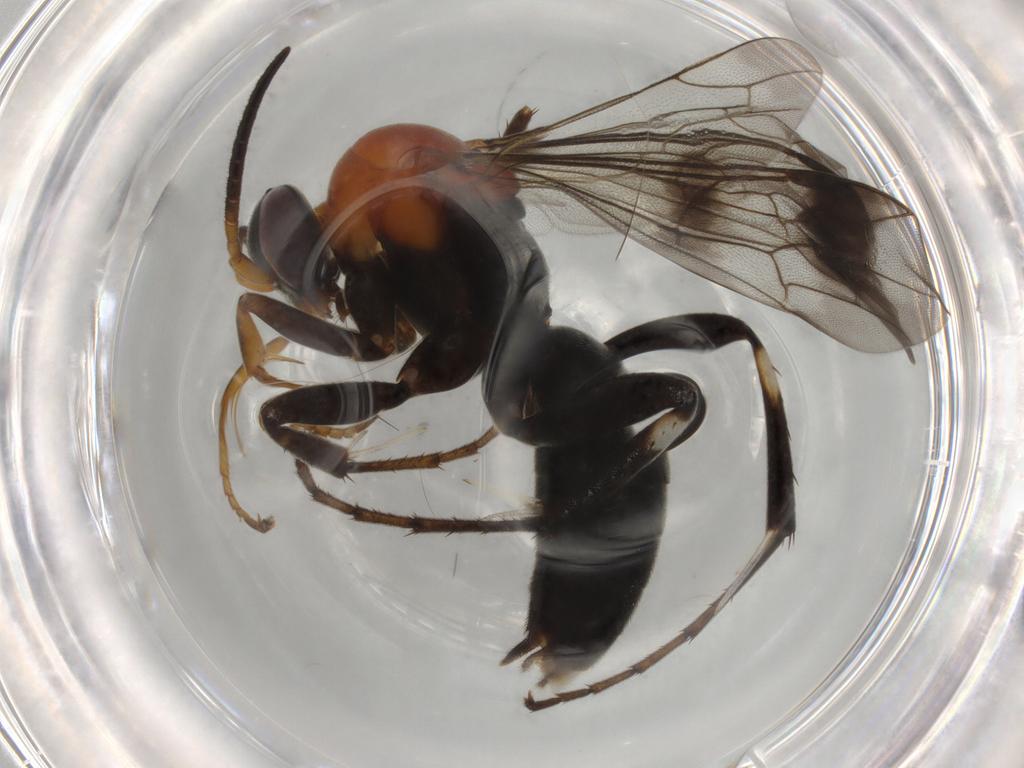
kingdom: Animalia
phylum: Arthropoda
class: Insecta
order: Hymenoptera
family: Pompilidae
